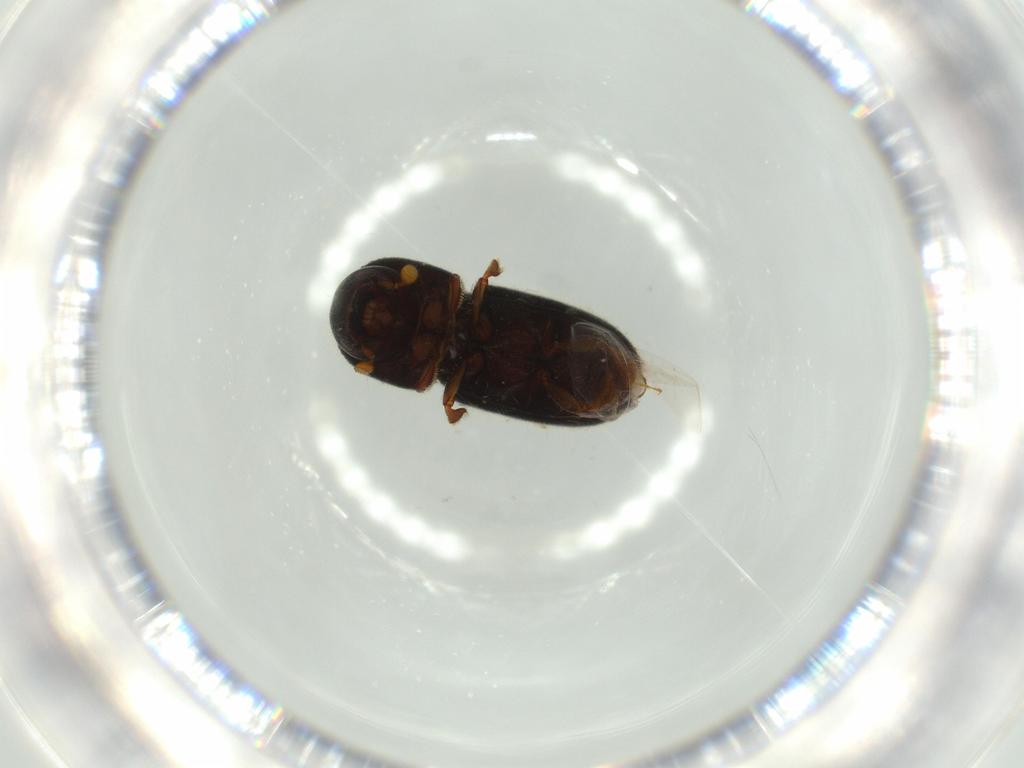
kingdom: Animalia
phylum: Arthropoda
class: Insecta
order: Coleoptera
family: Curculionidae
